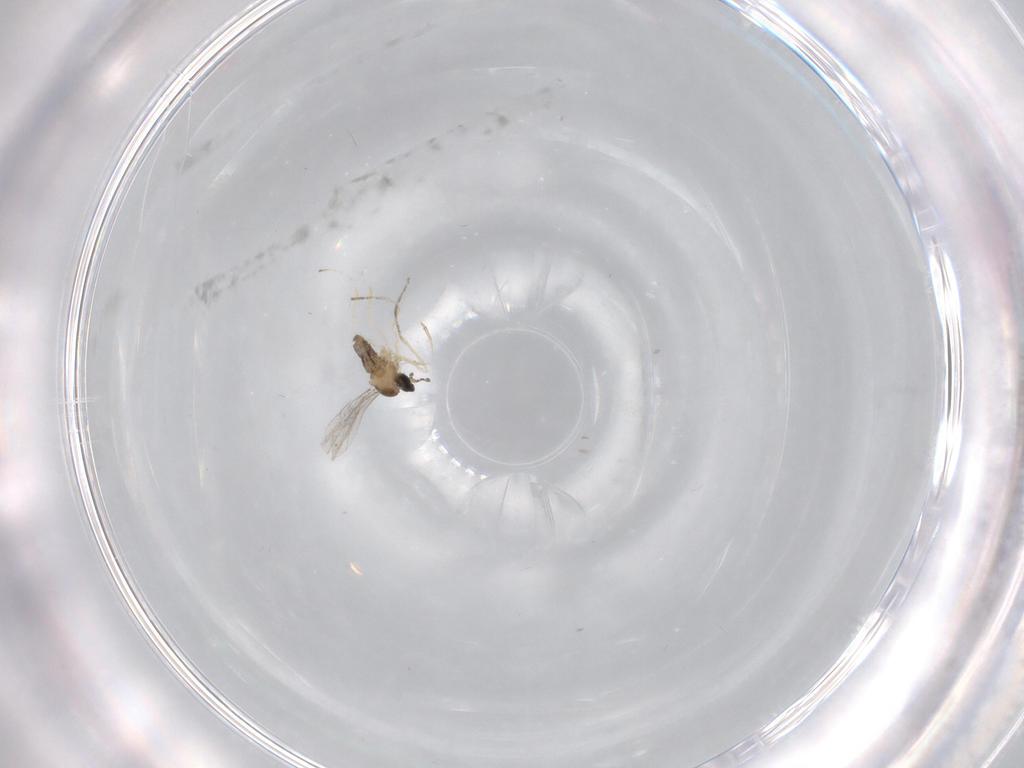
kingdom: Animalia
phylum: Arthropoda
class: Insecta
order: Diptera
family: Cecidomyiidae
